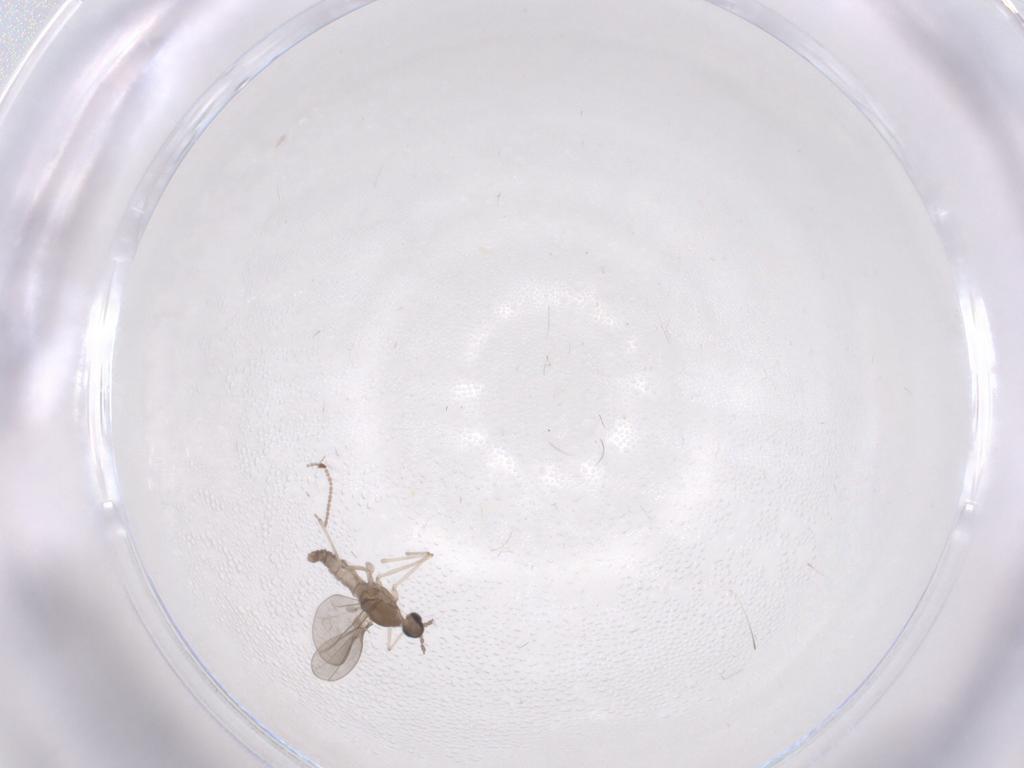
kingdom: Animalia
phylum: Arthropoda
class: Insecta
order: Diptera
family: Cecidomyiidae
